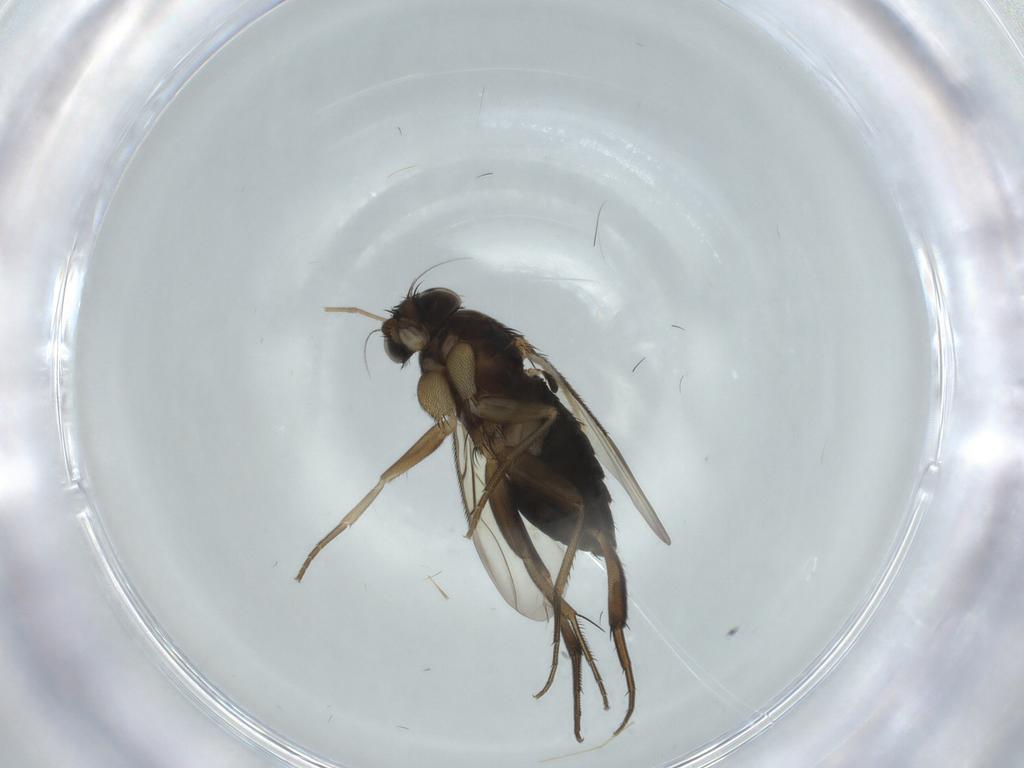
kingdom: Animalia
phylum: Arthropoda
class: Insecta
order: Diptera
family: Chironomidae
